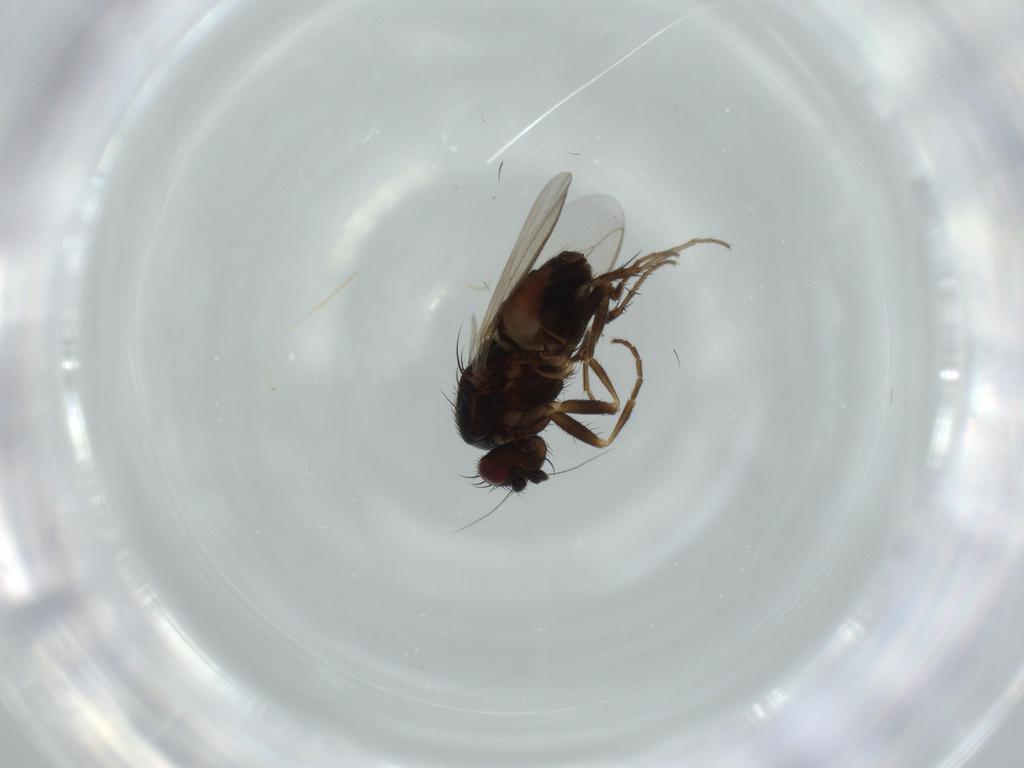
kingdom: Animalia
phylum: Arthropoda
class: Insecta
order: Diptera
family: Sphaeroceridae
